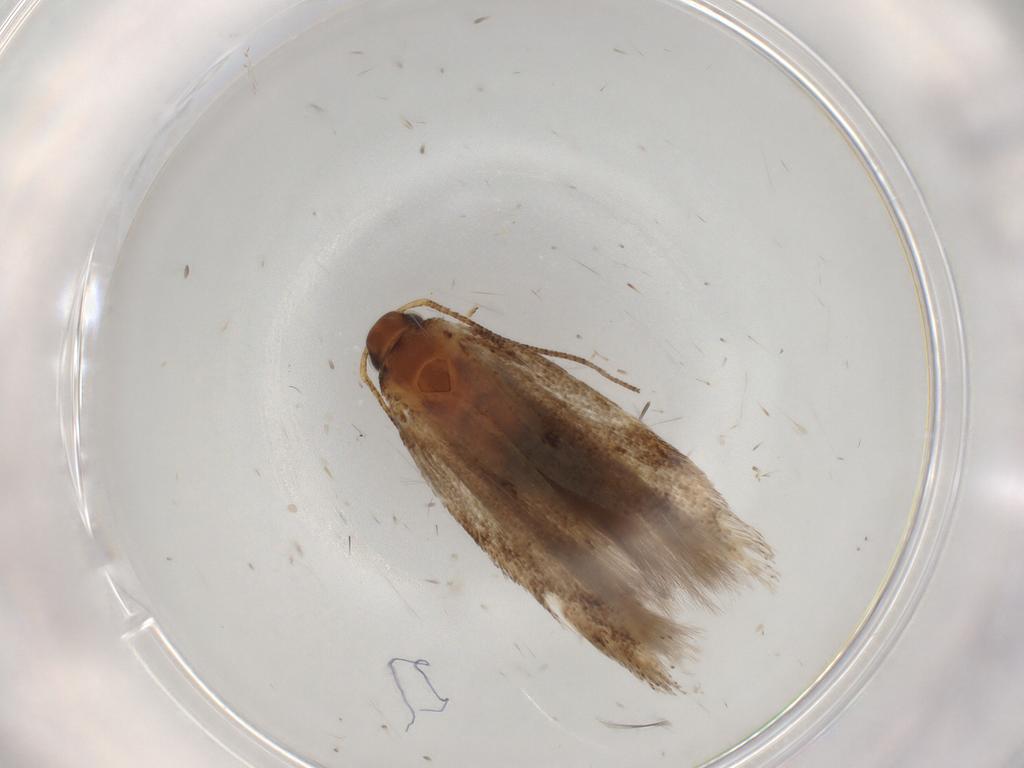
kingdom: Animalia
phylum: Arthropoda
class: Insecta
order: Lepidoptera
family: Gelechiidae
